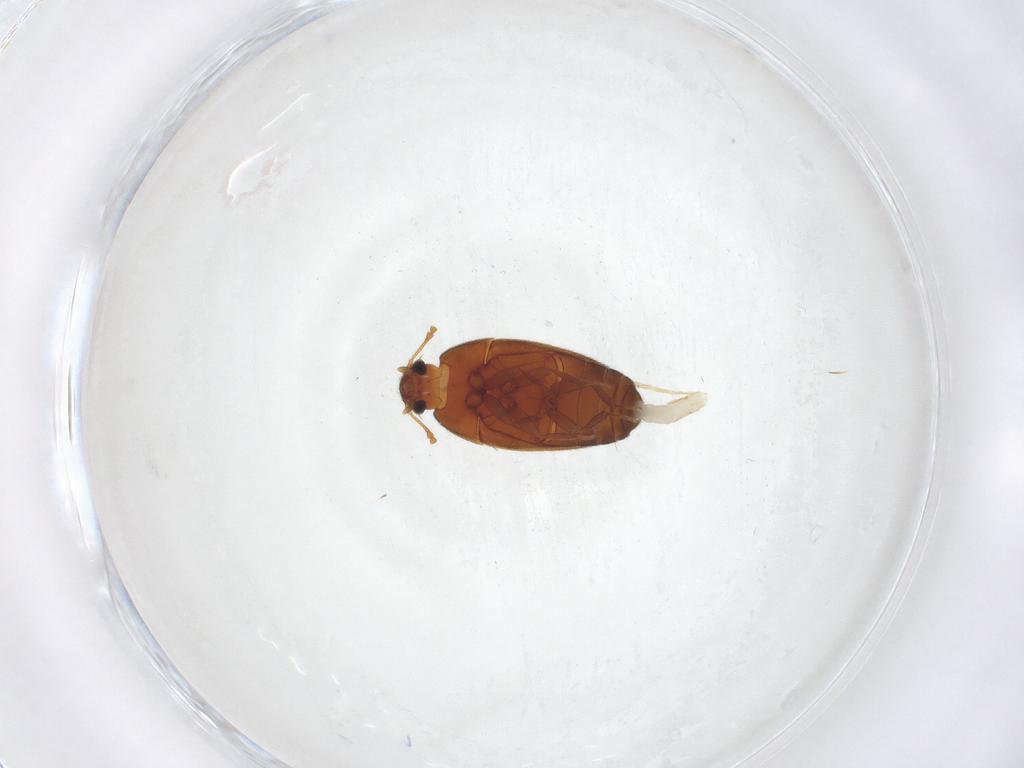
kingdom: Animalia
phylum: Arthropoda
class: Insecta
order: Coleoptera
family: Mycetophagidae
